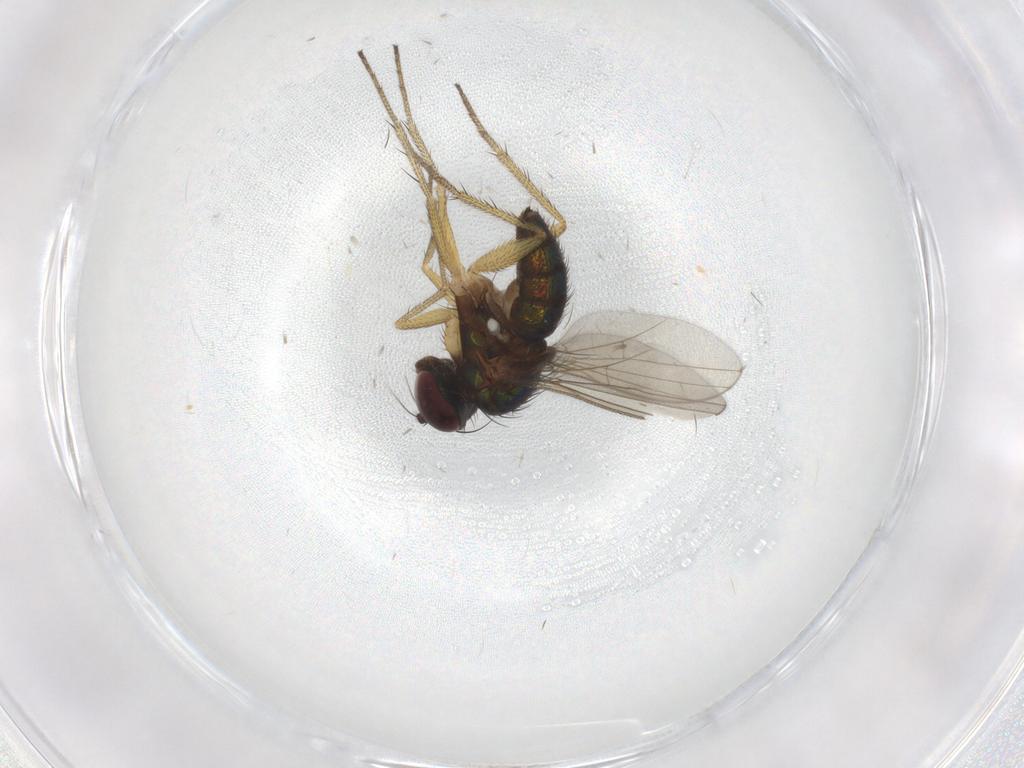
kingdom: Animalia
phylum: Arthropoda
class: Insecta
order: Diptera
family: Dolichopodidae
